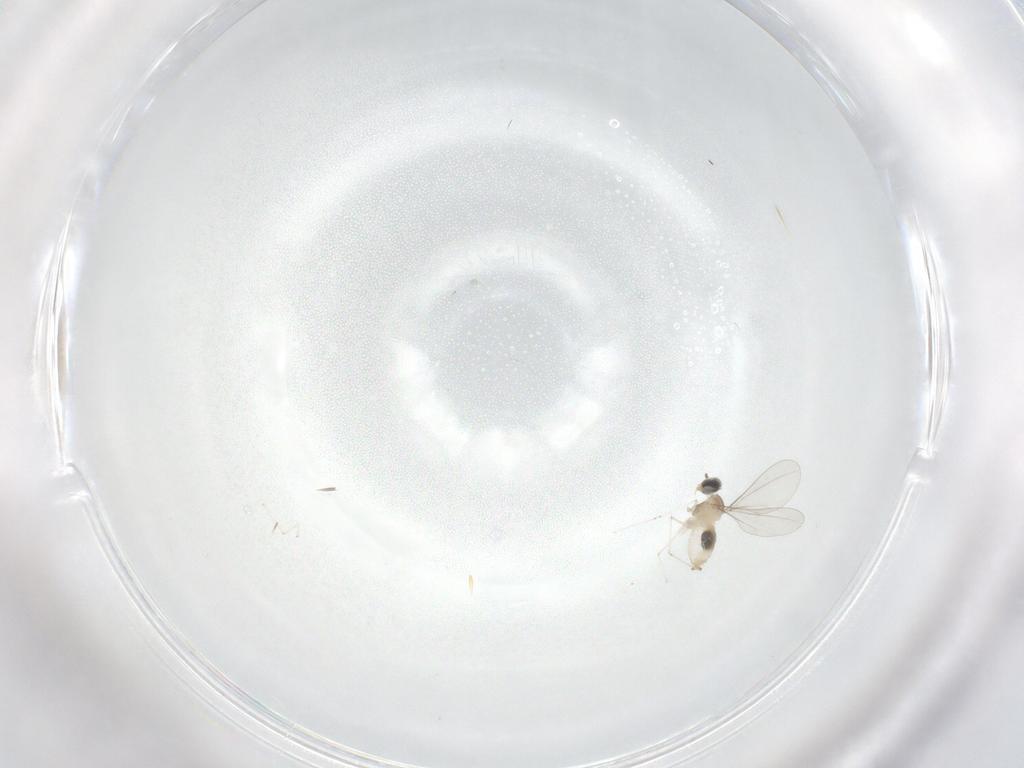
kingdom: Animalia
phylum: Arthropoda
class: Insecta
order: Diptera
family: Cecidomyiidae
